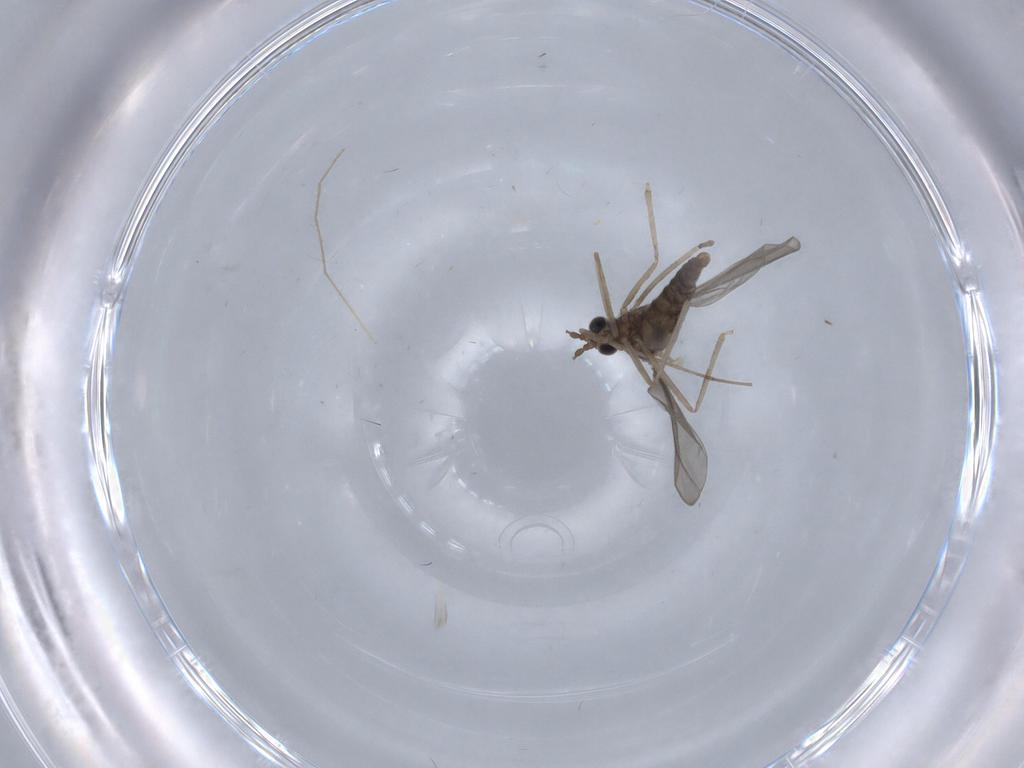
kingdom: Animalia
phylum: Arthropoda
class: Insecta
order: Diptera
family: Cecidomyiidae
